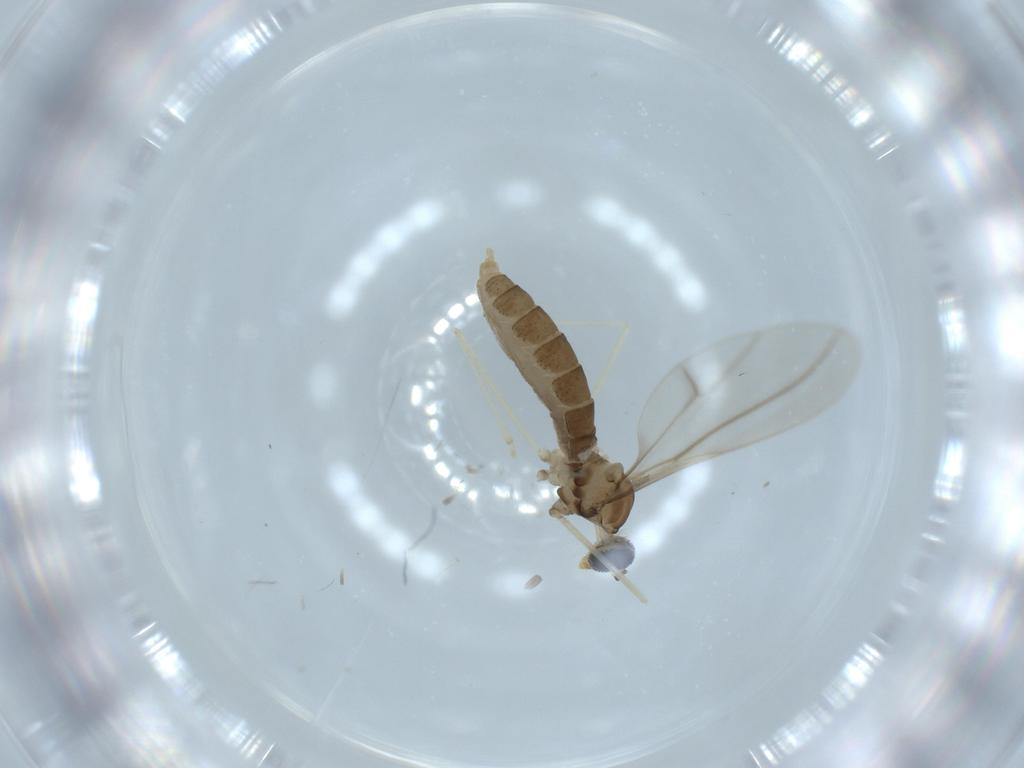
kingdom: Animalia
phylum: Arthropoda
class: Insecta
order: Diptera
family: Cecidomyiidae
